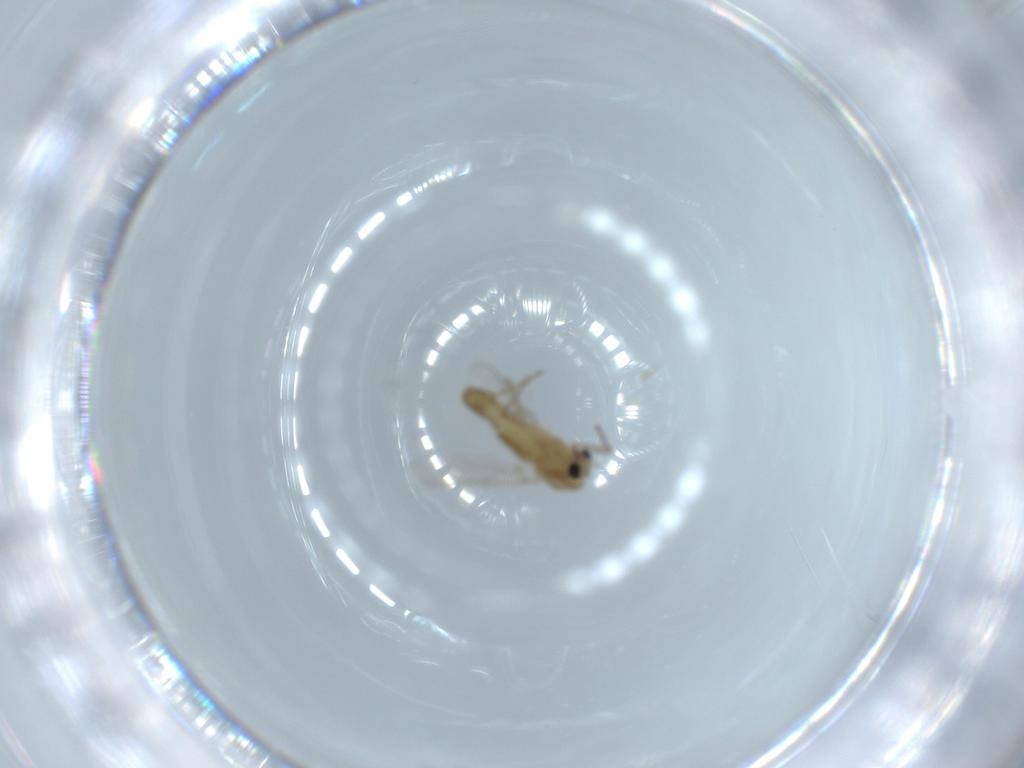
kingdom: Animalia
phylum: Arthropoda
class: Insecta
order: Diptera
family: Chironomidae
